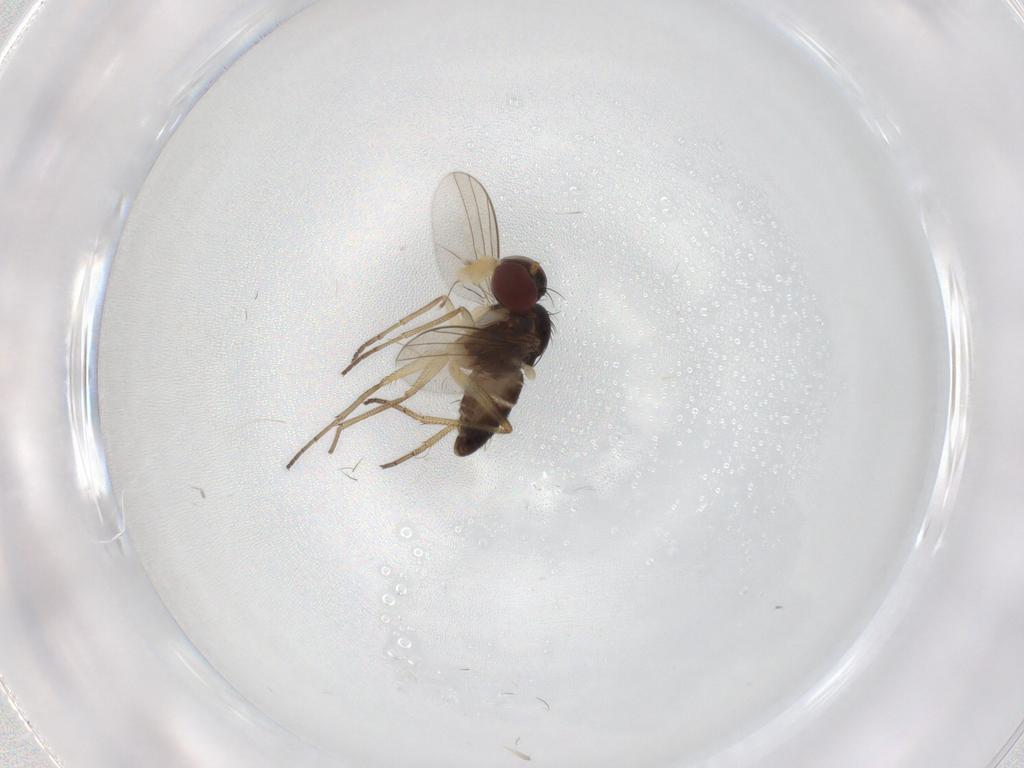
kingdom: Animalia
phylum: Arthropoda
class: Insecta
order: Diptera
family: Dolichopodidae
